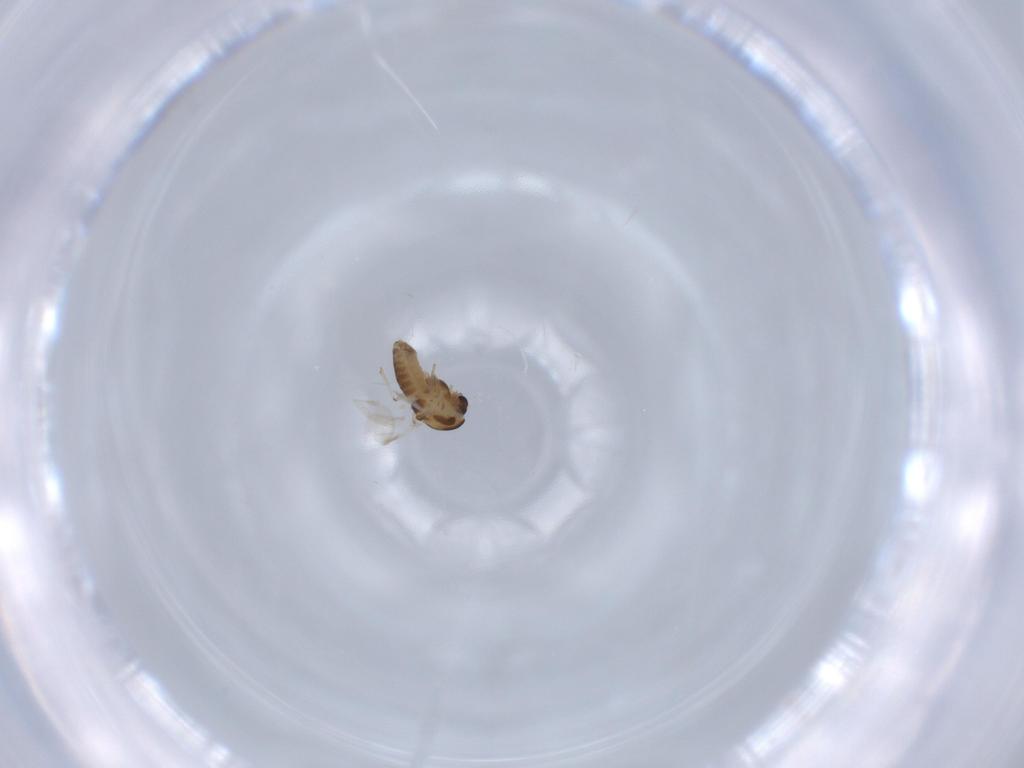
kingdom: Animalia
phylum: Arthropoda
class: Insecta
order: Diptera
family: Chironomidae
